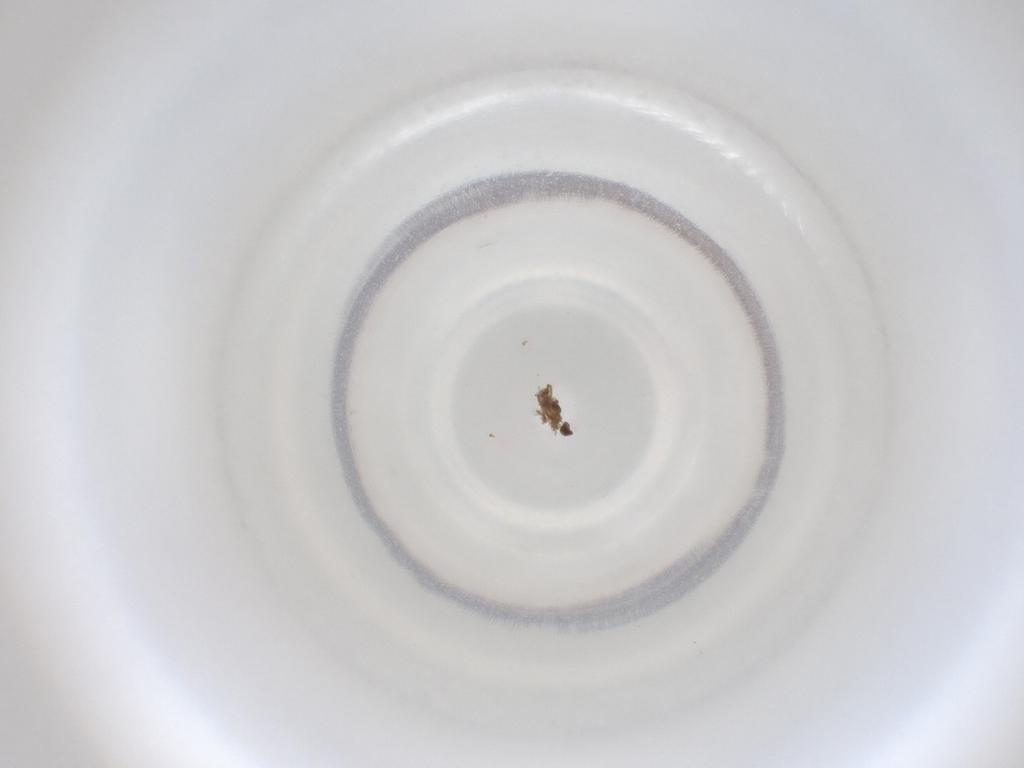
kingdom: Animalia
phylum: Arthropoda
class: Insecta
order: Diptera
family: Cecidomyiidae
